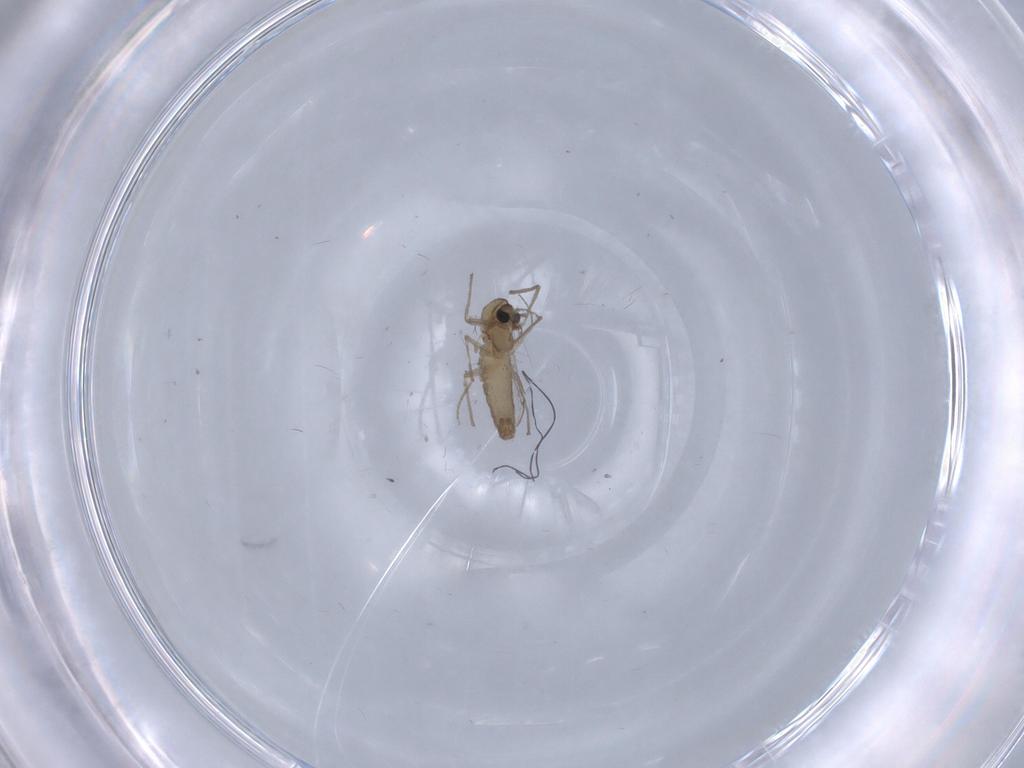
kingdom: Animalia
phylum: Arthropoda
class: Insecta
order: Diptera
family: Chironomidae
